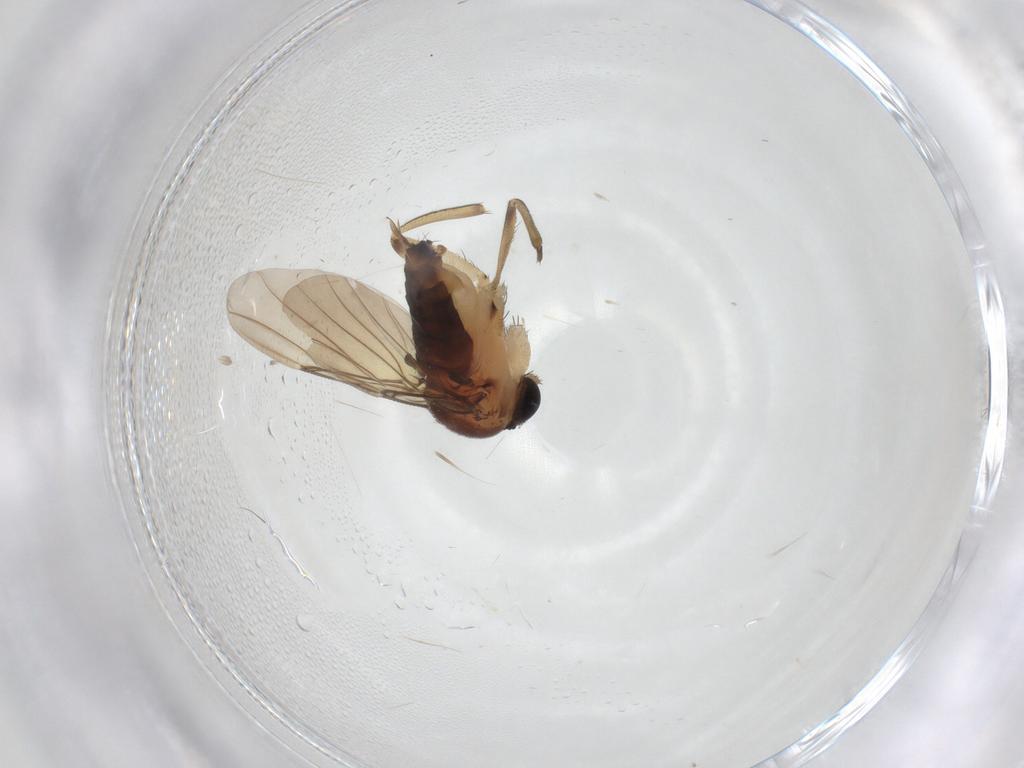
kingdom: Animalia
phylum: Arthropoda
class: Insecta
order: Diptera
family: Phoridae
